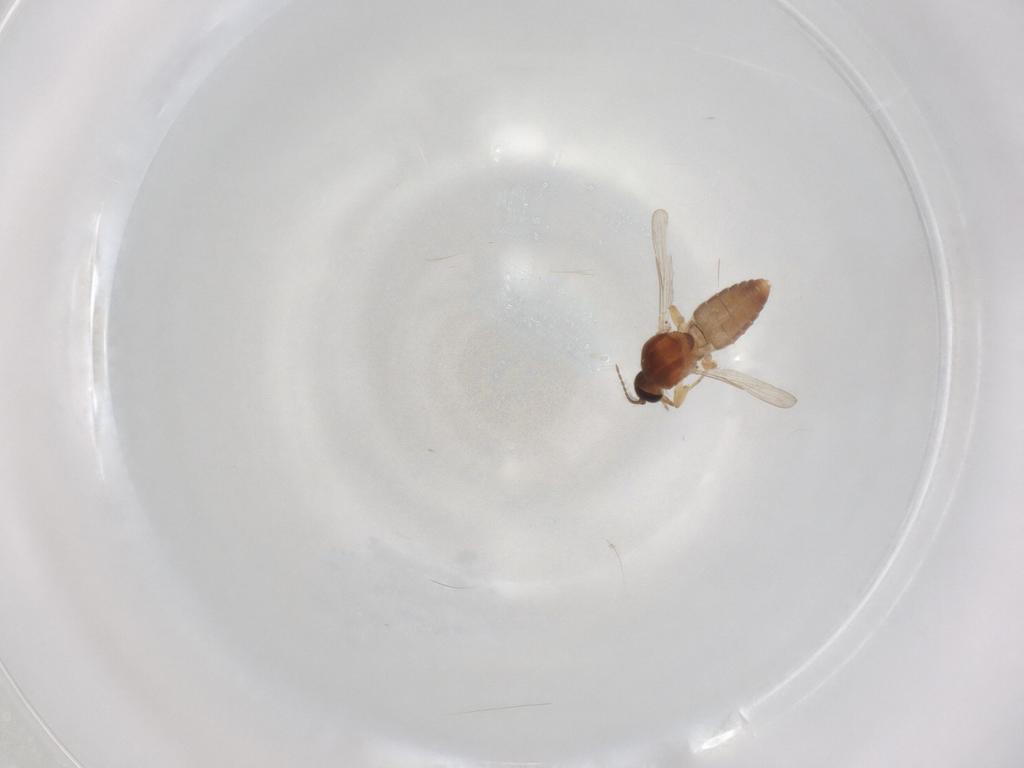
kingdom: Animalia
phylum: Arthropoda
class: Insecta
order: Diptera
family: Ceratopogonidae
